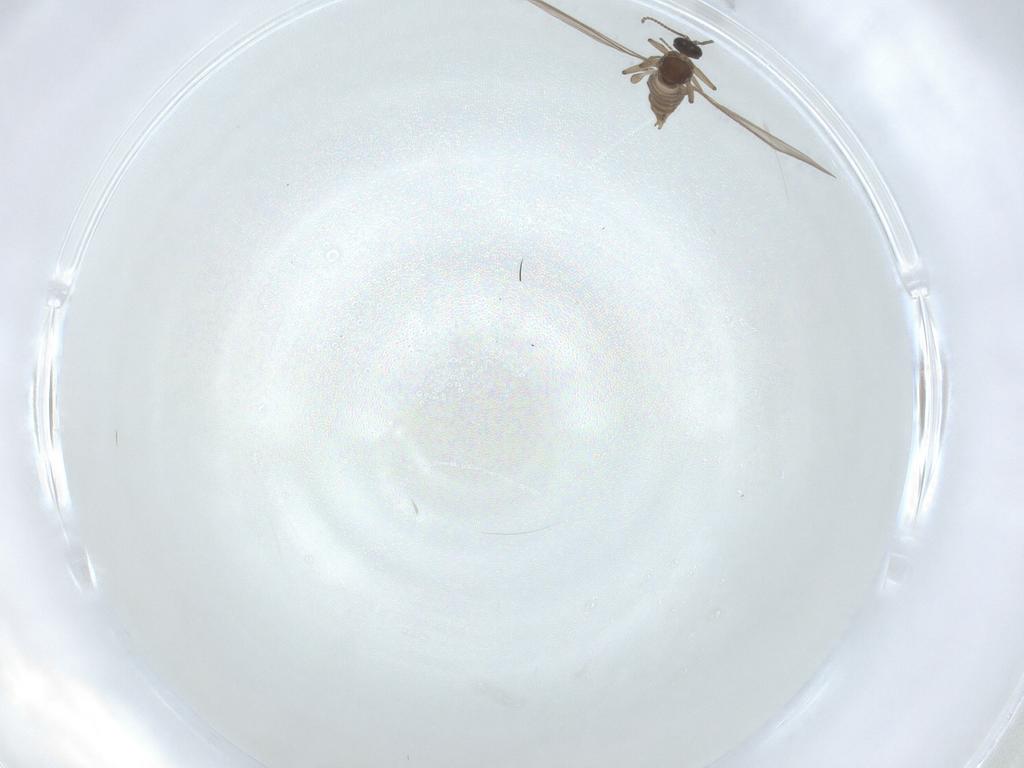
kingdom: Animalia
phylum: Arthropoda
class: Insecta
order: Diptera
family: Sciaridae
